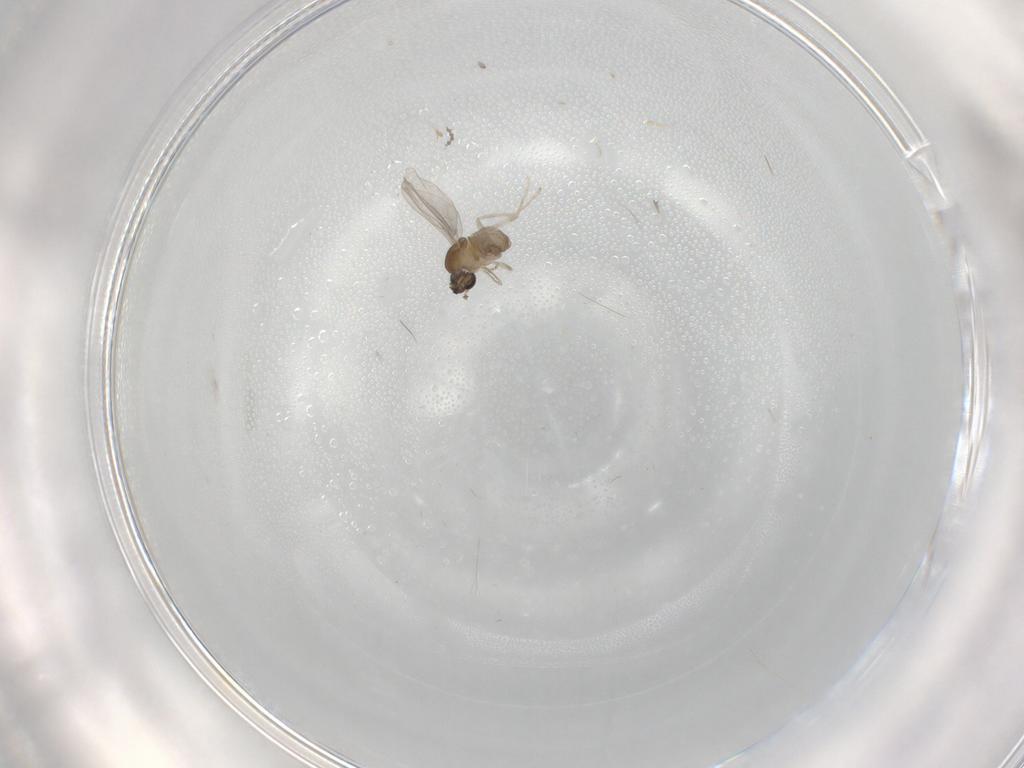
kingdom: Animalia
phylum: Arthropoda
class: Insecta
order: Diptera
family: Cecidomyiidae
